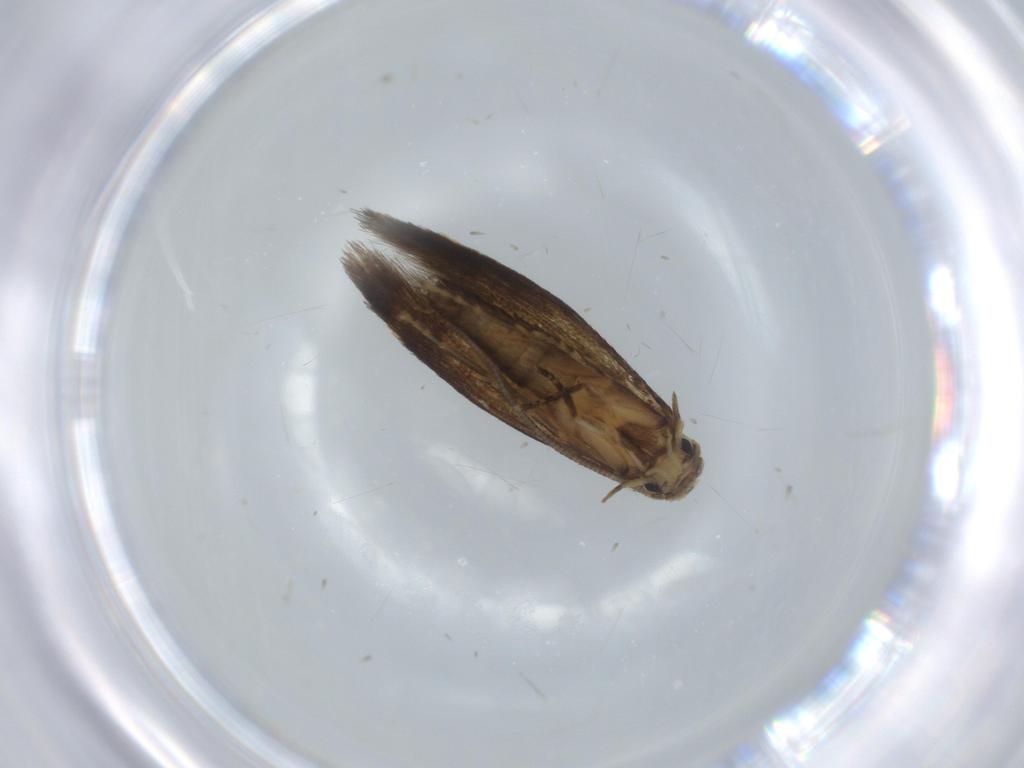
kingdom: Animalia
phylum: Arthropoda
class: Insecta
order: Lepidoptera
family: Tineidae
